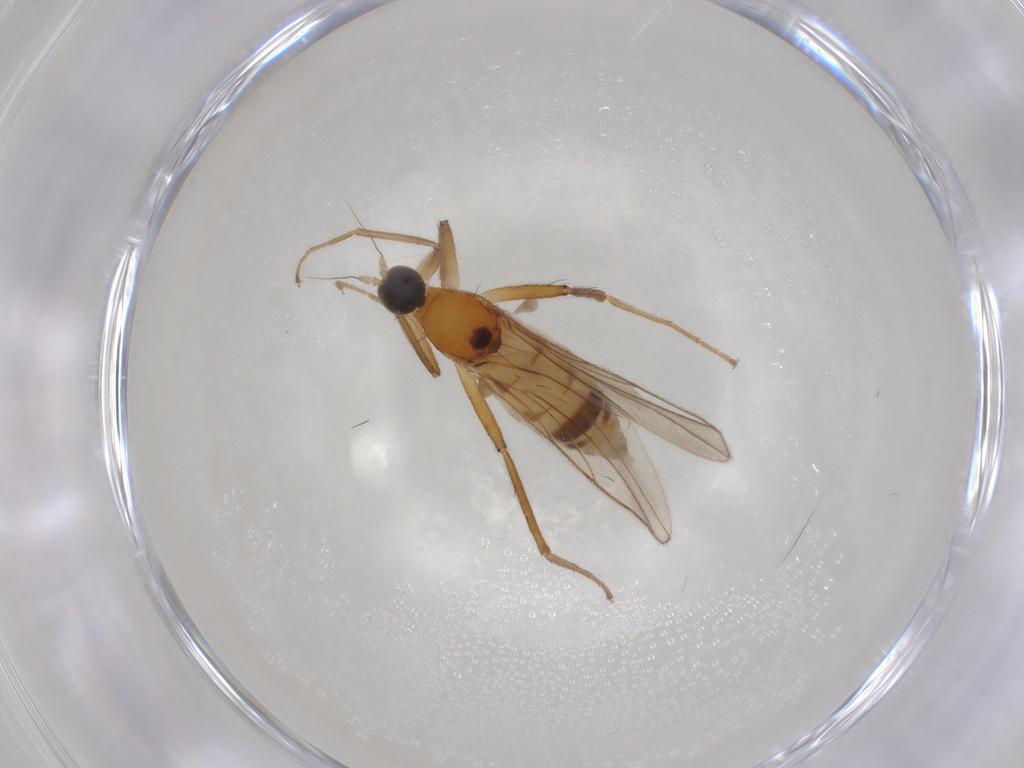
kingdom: Animalia
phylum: Arthropoda
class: Insecta
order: Diptera
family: Hybotidae
